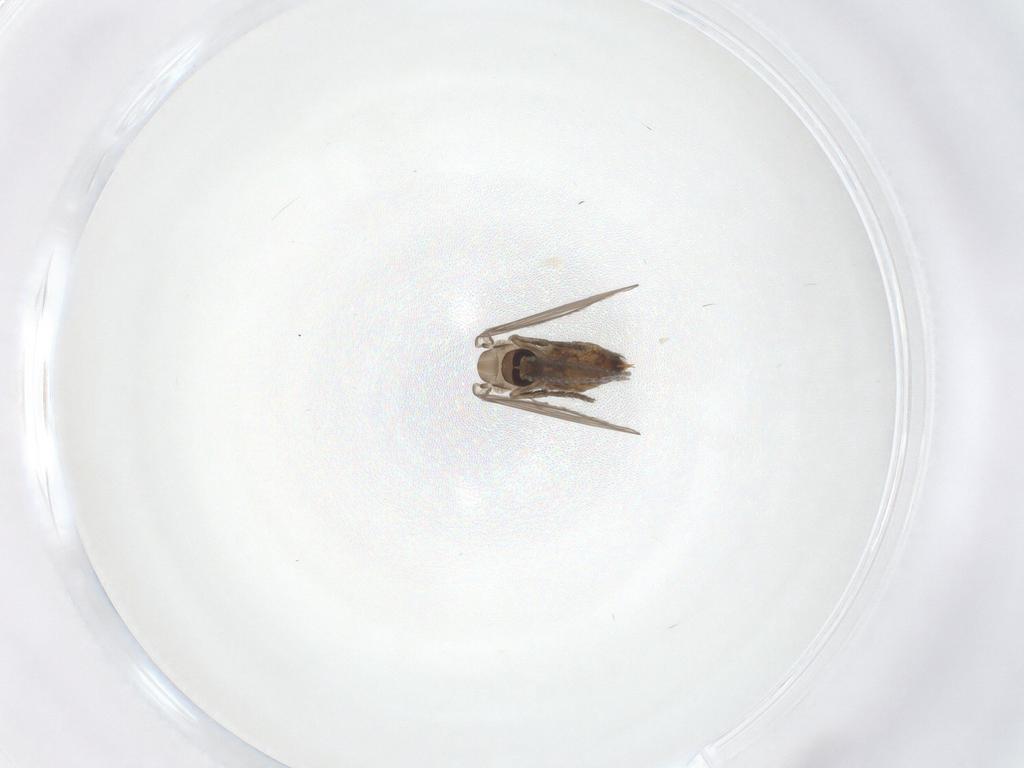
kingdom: Animalia
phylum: Arthropoda
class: Insecta
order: Diptera
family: Psychodidae
